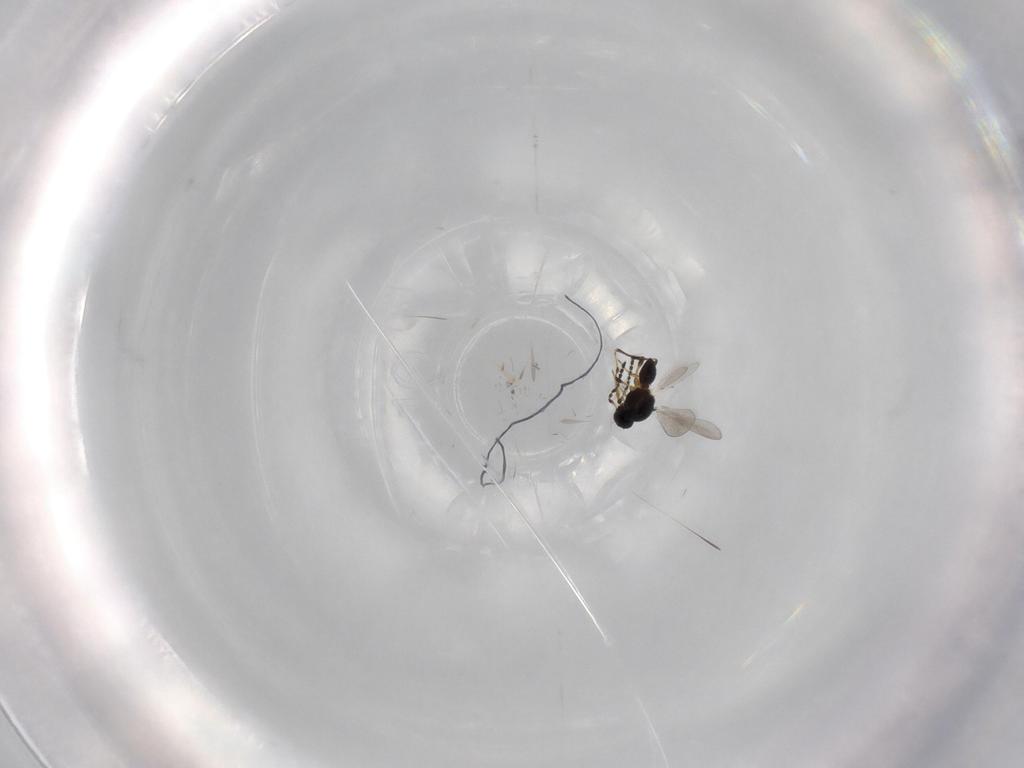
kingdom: Animalia
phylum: Arthropoda
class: Insecta
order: Hymenoptera
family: Platygastridae
